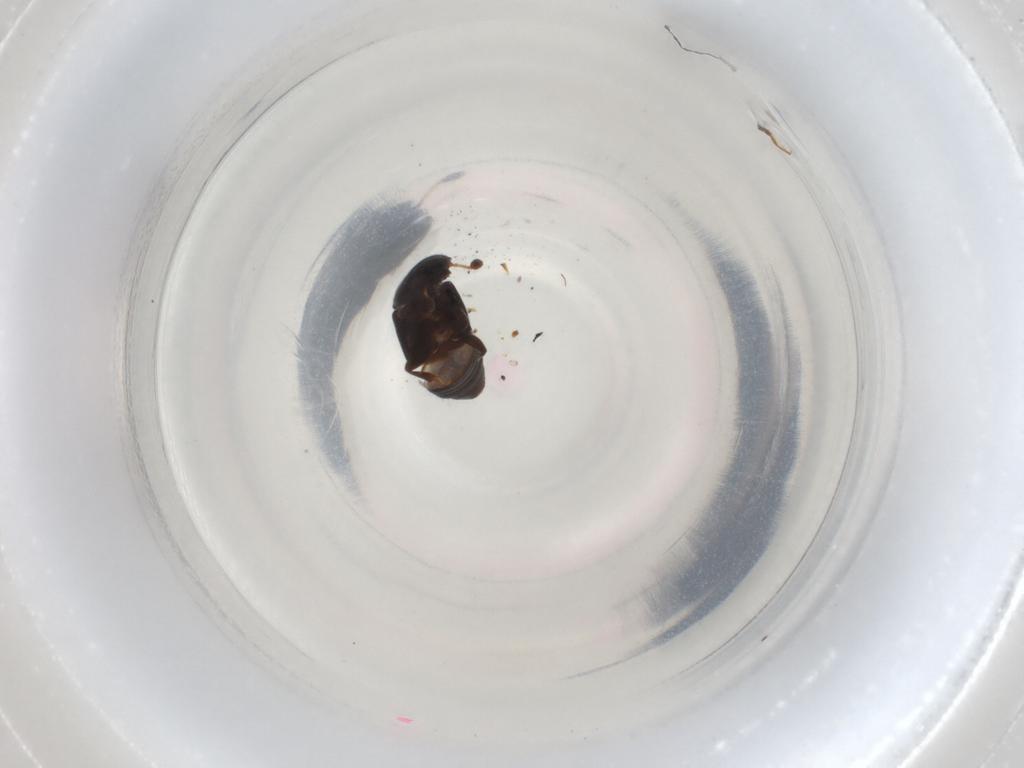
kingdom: Animalia
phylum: Arthropoda
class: Insecta
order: Coleoptera
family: Nitidulidae
